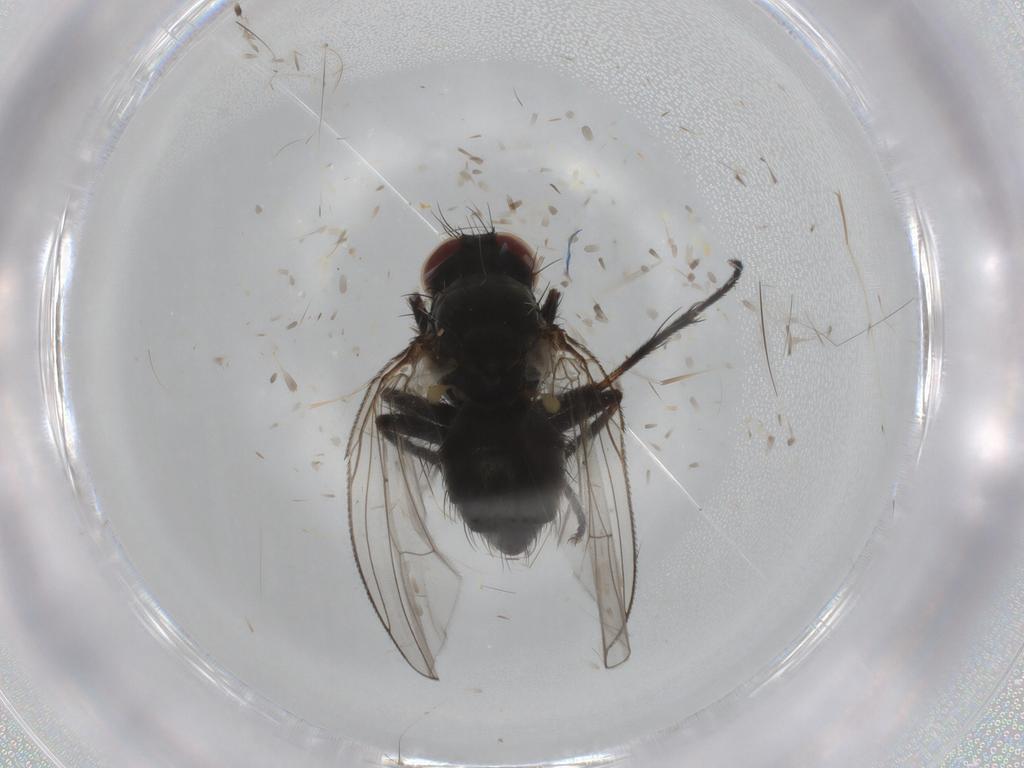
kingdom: Animalia
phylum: Arthropoda
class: Insecta
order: Diptera
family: Muscidae
